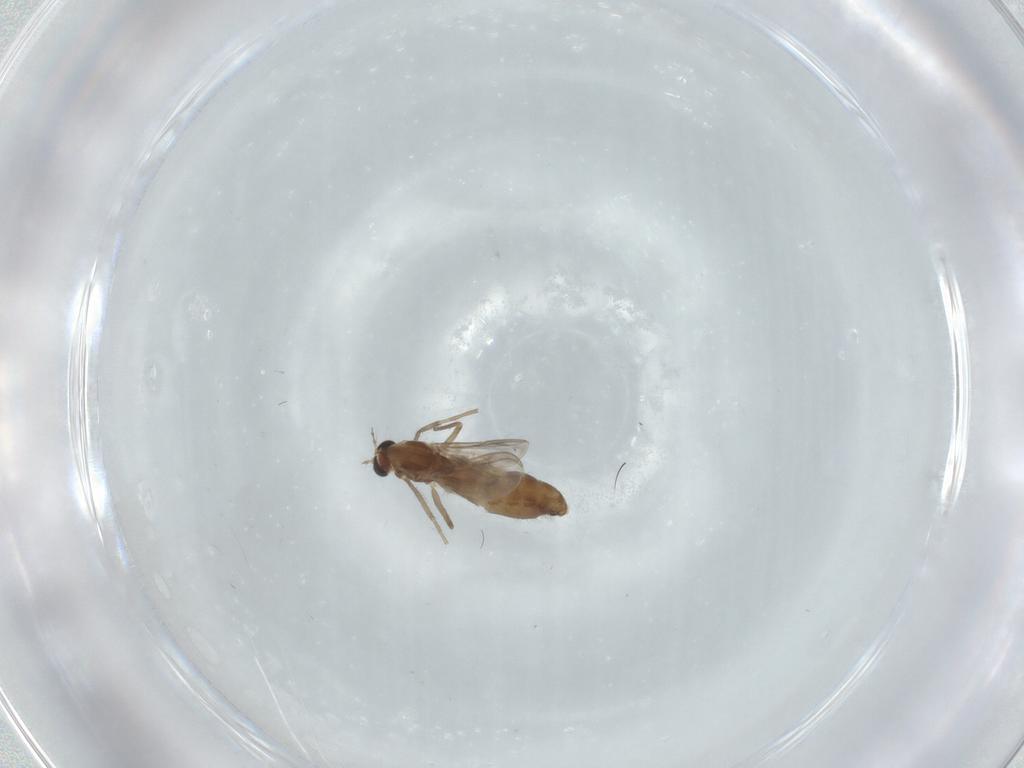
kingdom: Animalia
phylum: Arthropoda
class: Insecta
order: Diptera
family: Chironomidae
